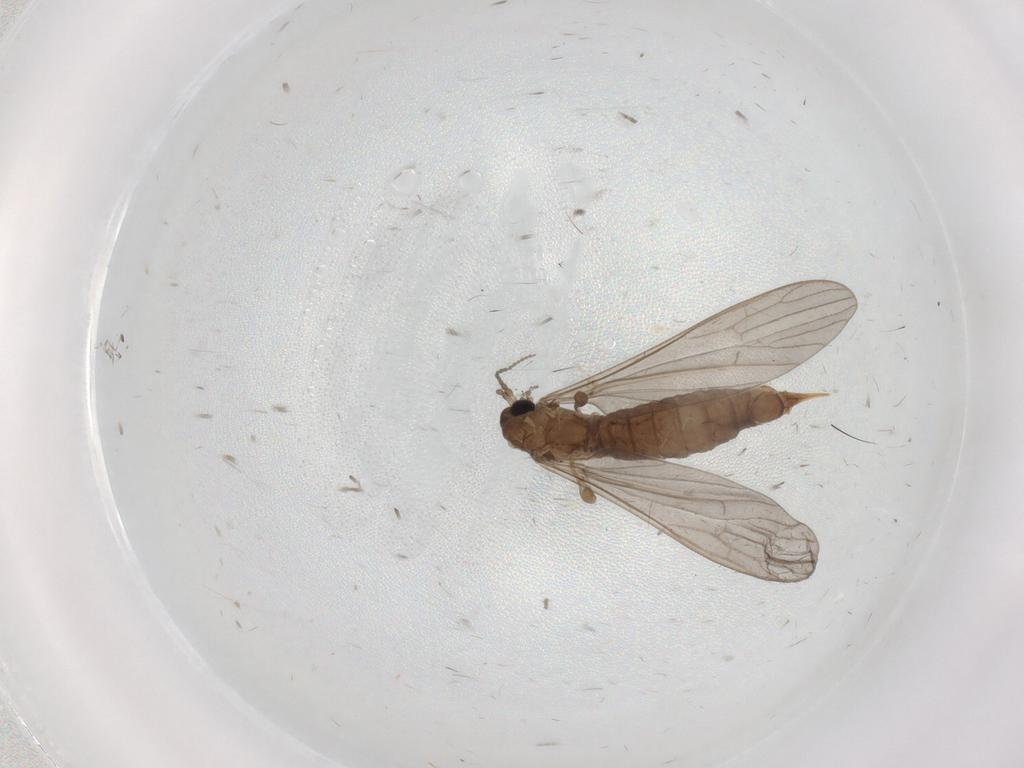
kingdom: Animalia
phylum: Arthropoda
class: Insecta
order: Diptera
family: Limoniidae
